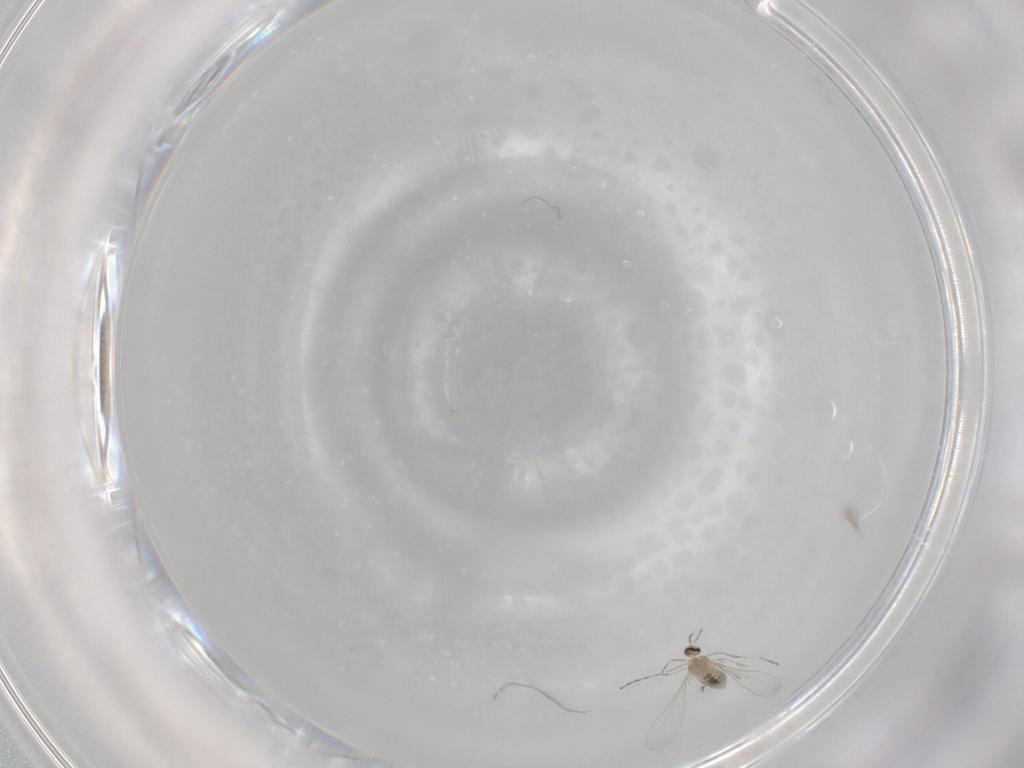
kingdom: Animalia
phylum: Arthropoda
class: Insecta
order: Diptera
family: Cecidomyiidae
